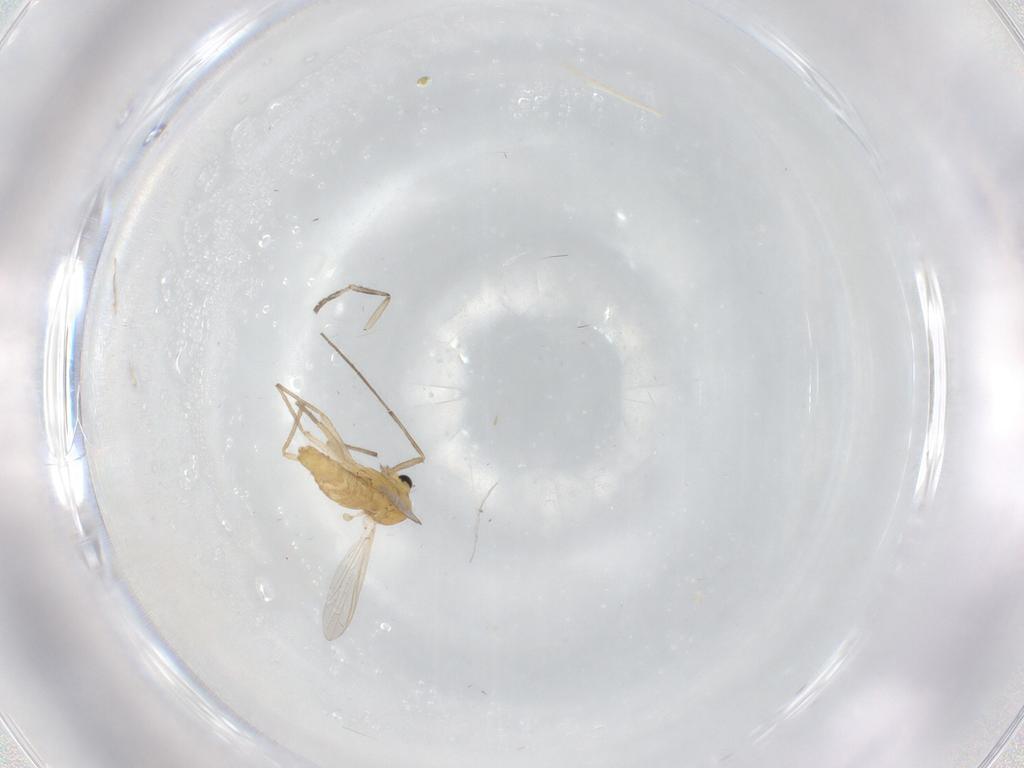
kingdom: Animalia
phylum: Arthropoda
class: Insecta
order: Diptera
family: Chironomidae
